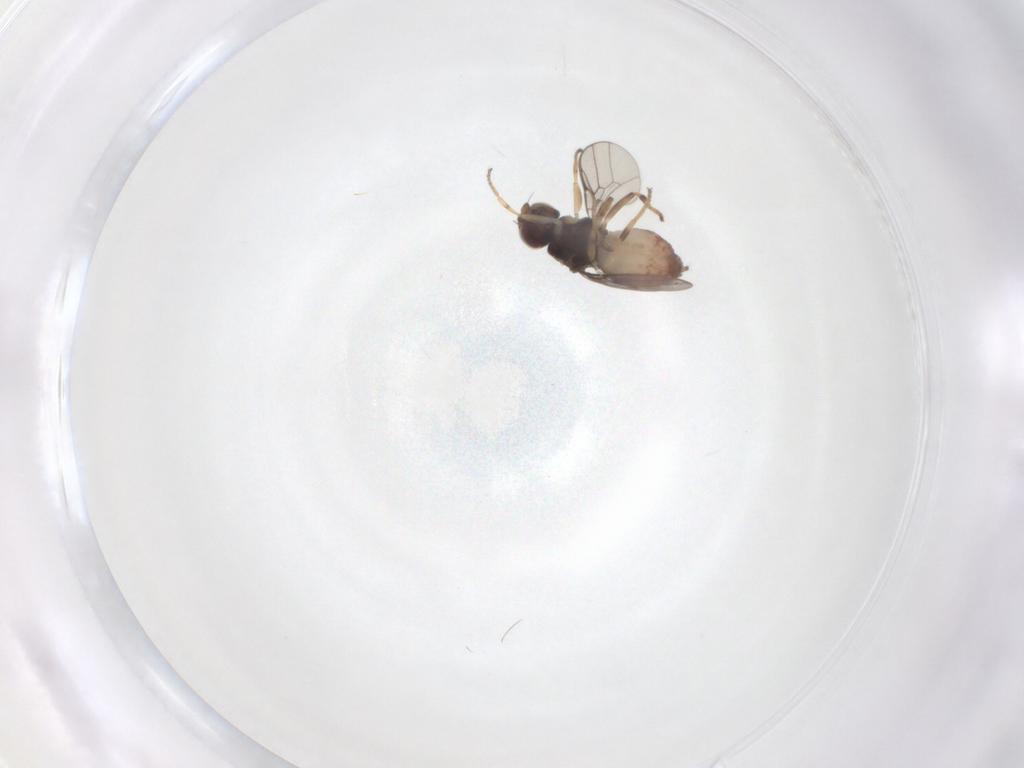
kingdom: Animalia
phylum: Arthropoda
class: Insecta
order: Diptera
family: Chloropidae
